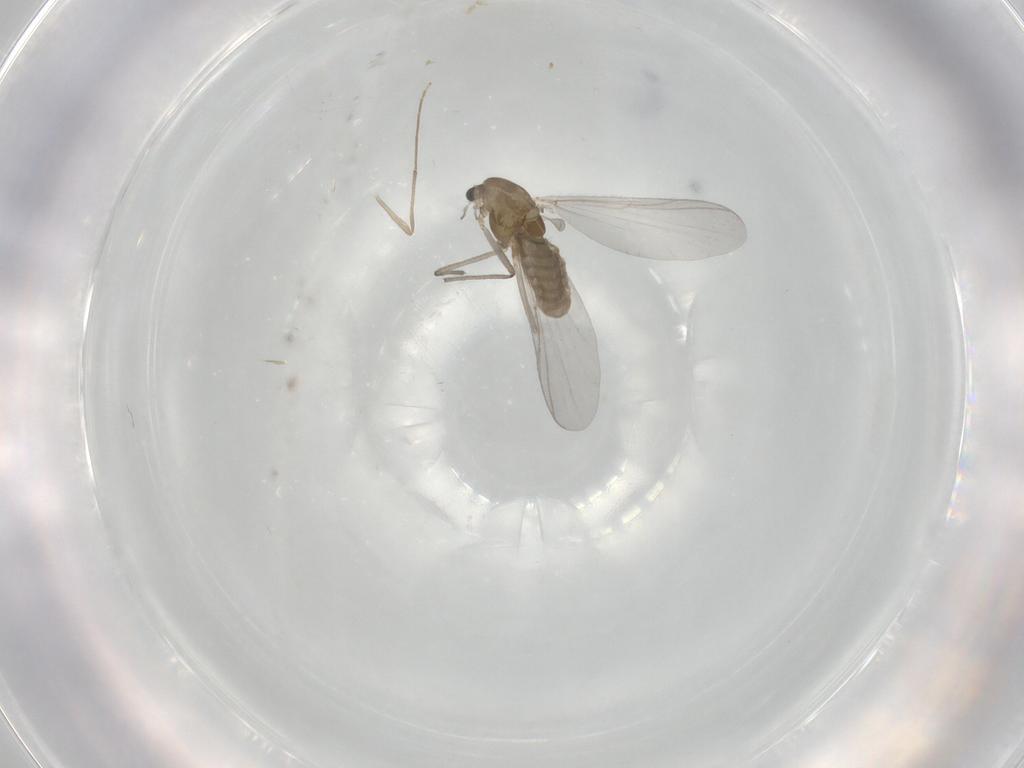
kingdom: Animalia
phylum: Arthropoda
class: Insecta
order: Diptera
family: Chironomidae
